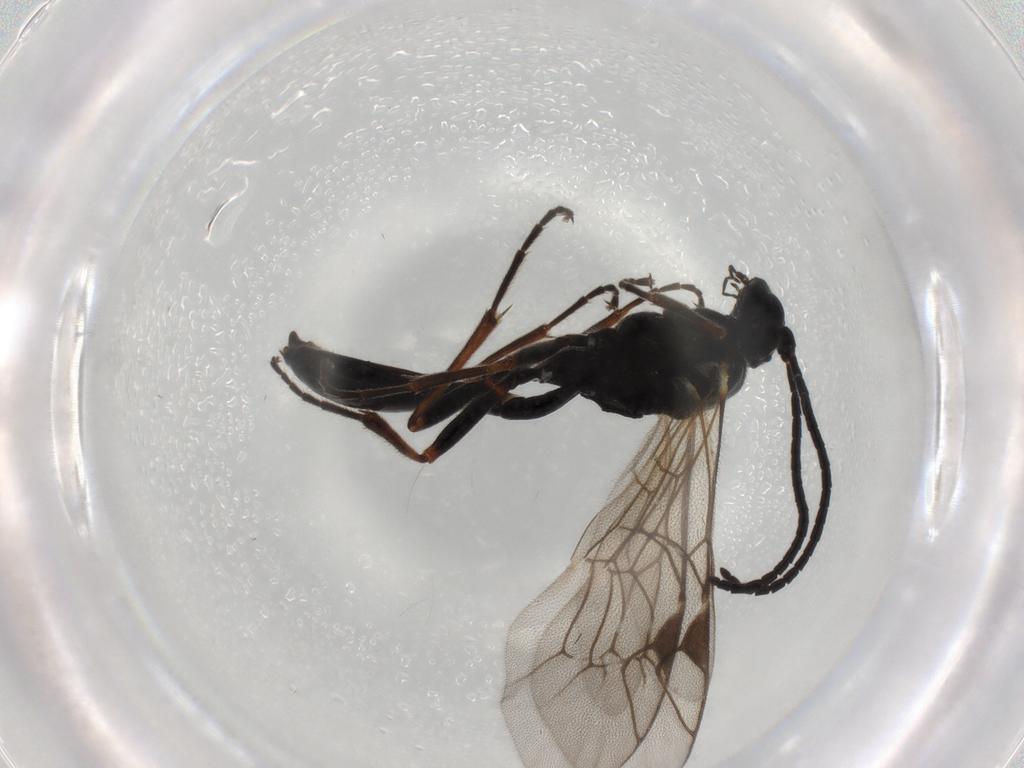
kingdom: Animalia
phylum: Arthropoda
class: Insecta
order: Hymenoptera
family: Ichneumonidae
